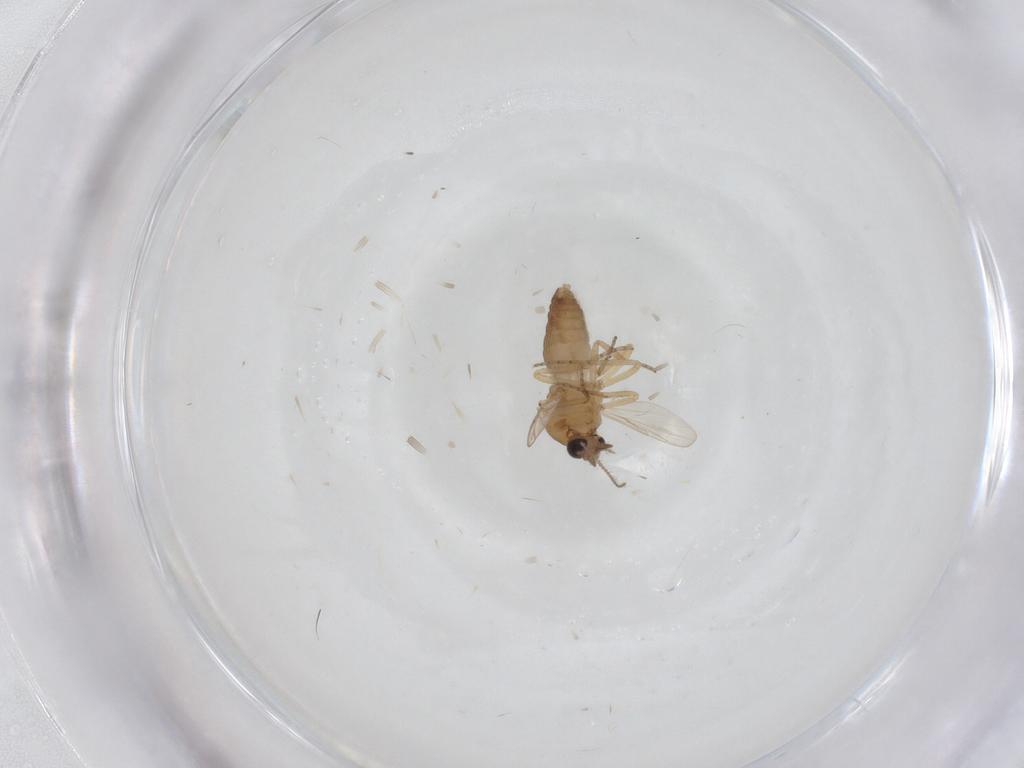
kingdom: Animalia
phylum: Arthropoda
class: Insecta
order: Diptera
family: Ceratopogonidae
